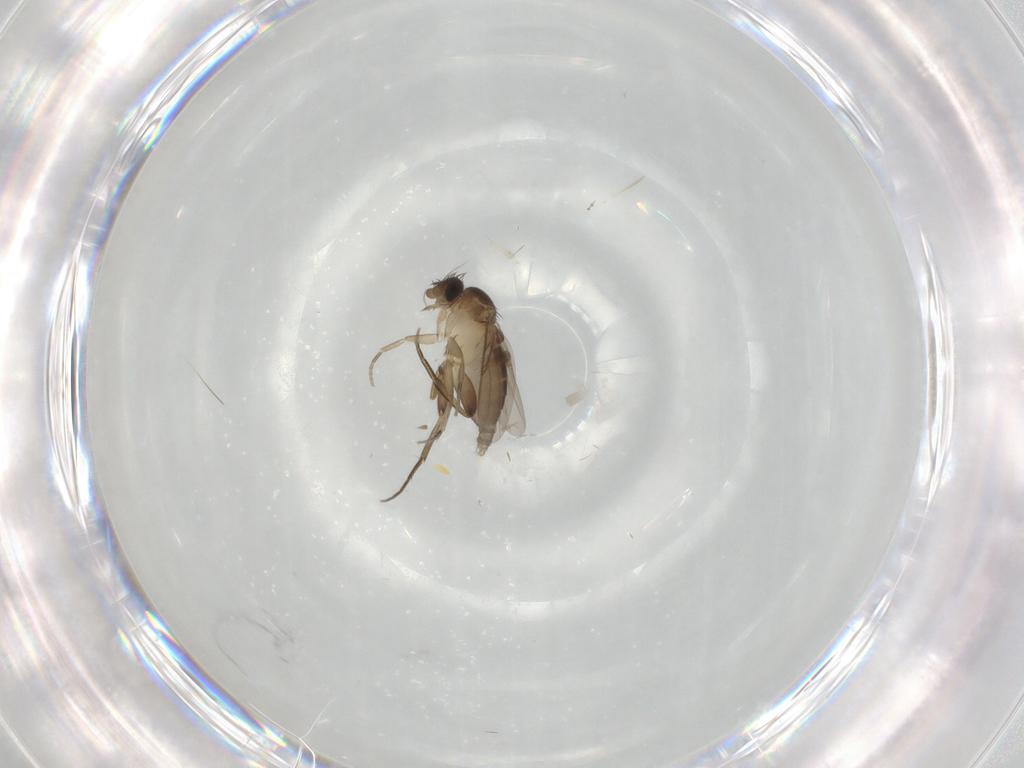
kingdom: Animalia
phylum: Arthropoda
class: Insecta
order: Diptera
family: Phoridae
